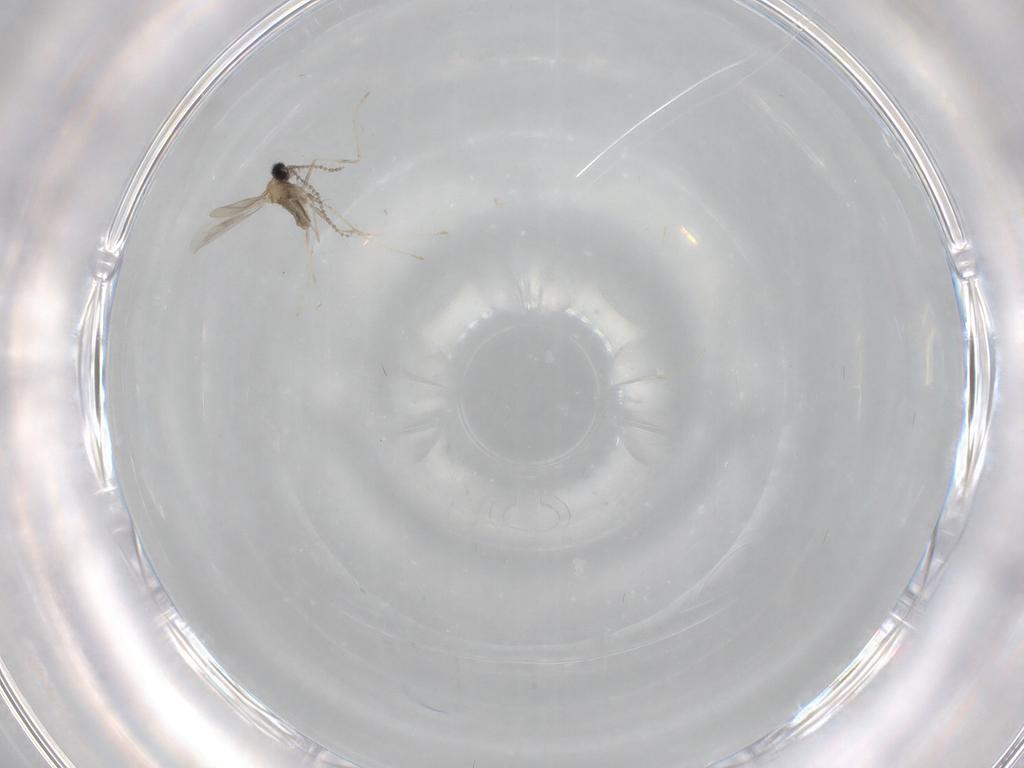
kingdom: Animalia
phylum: Arthropoda
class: Insecta
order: Diptera
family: Cecidomyiidae
